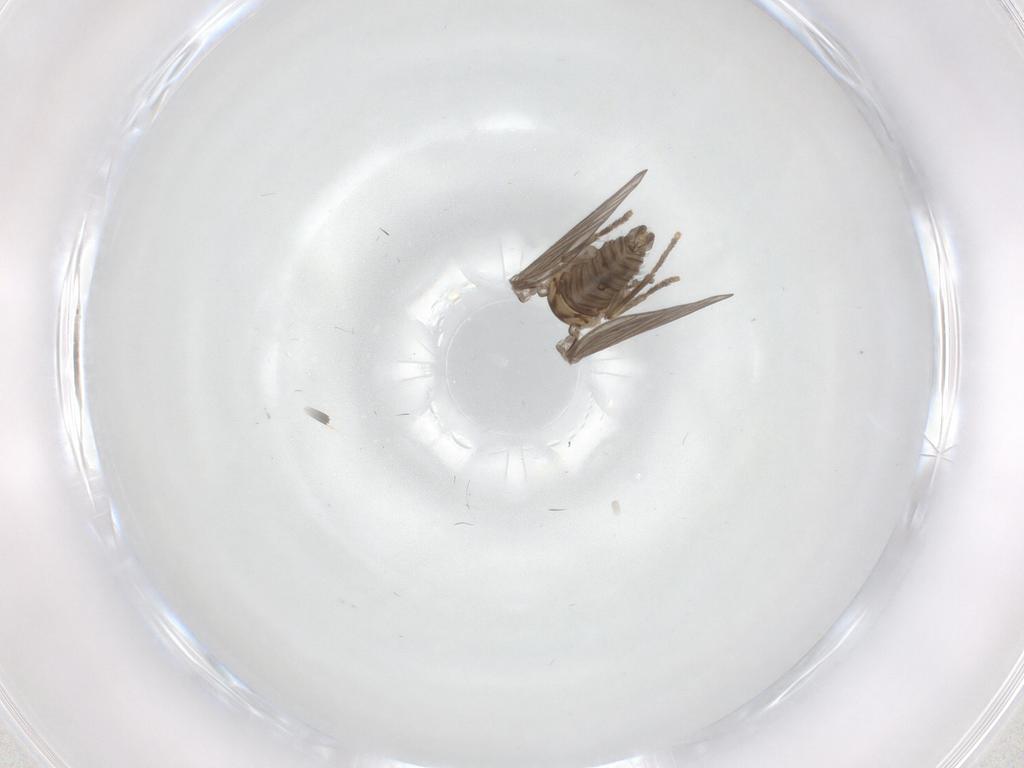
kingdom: Animalia
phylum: Arthropoda
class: Insecta
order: Diptera
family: Psychodidae
